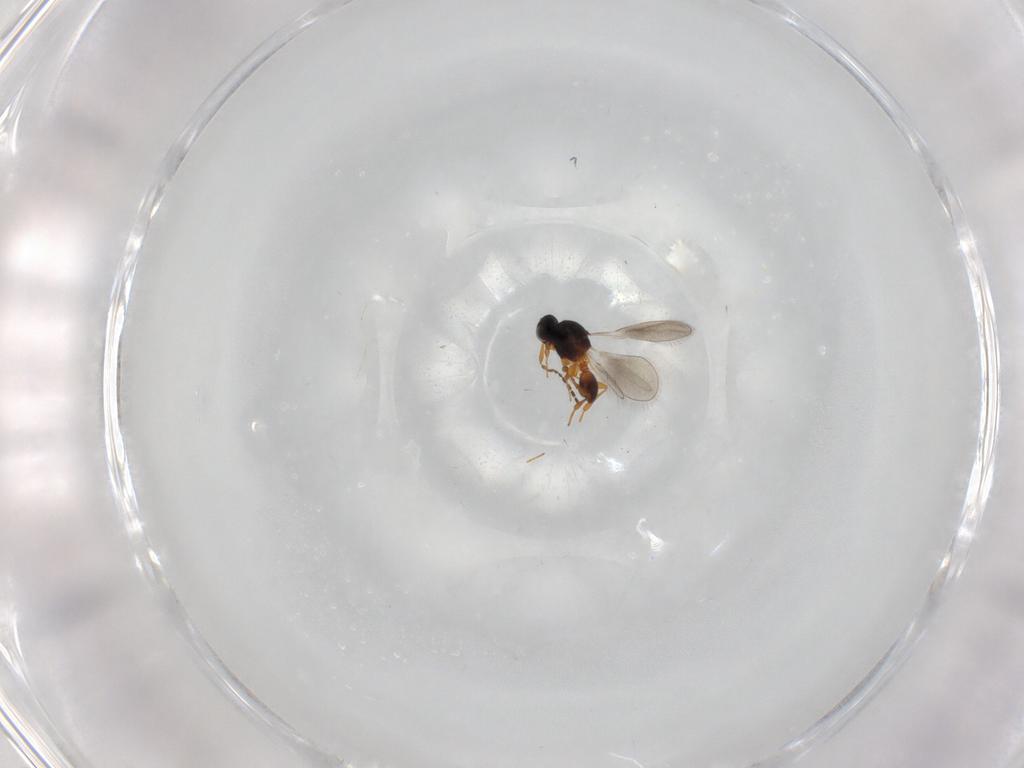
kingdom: Animalia
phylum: Arthropoda
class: Insecta
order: Hymenoptera
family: Platygastridae
